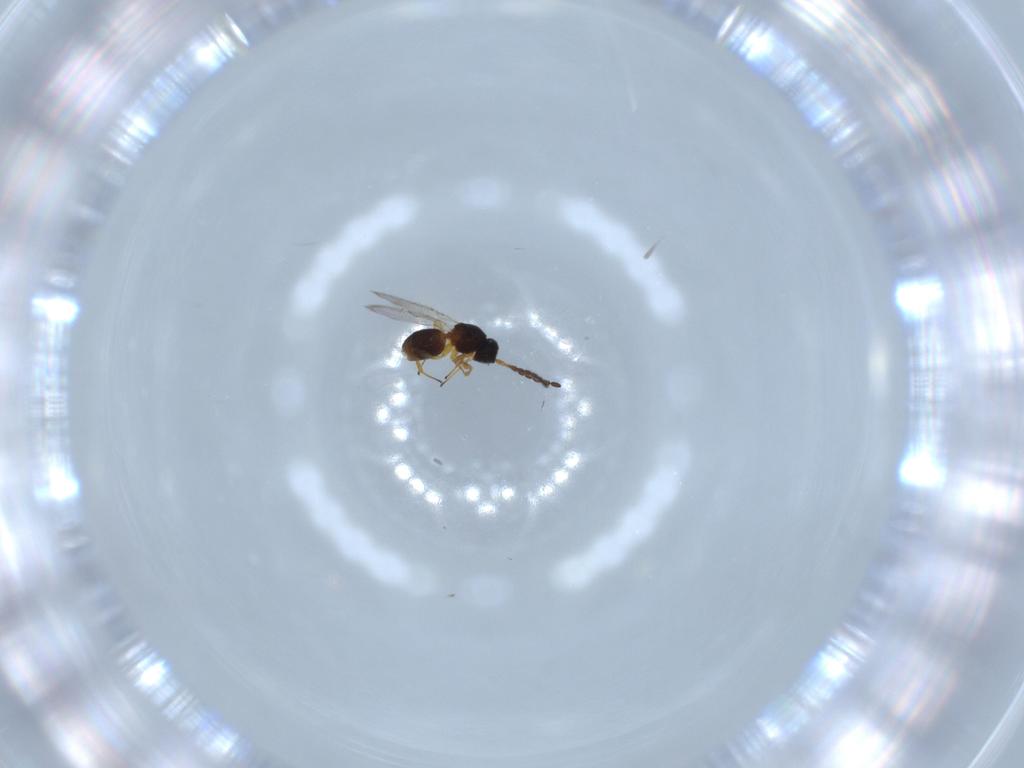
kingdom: Animalia
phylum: Arthropoda
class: Insecta
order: Hymenoptera
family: Figitidae
